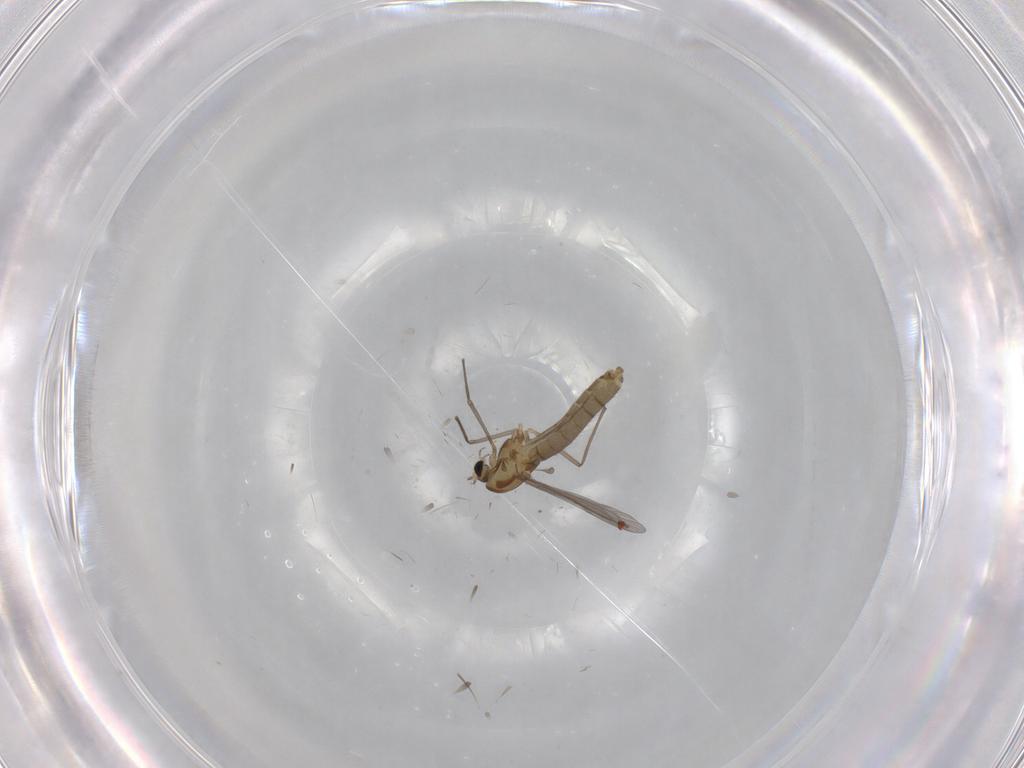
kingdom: Animalia
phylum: Arthropoda
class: Insecta
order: Diptera
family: Chironomidae
